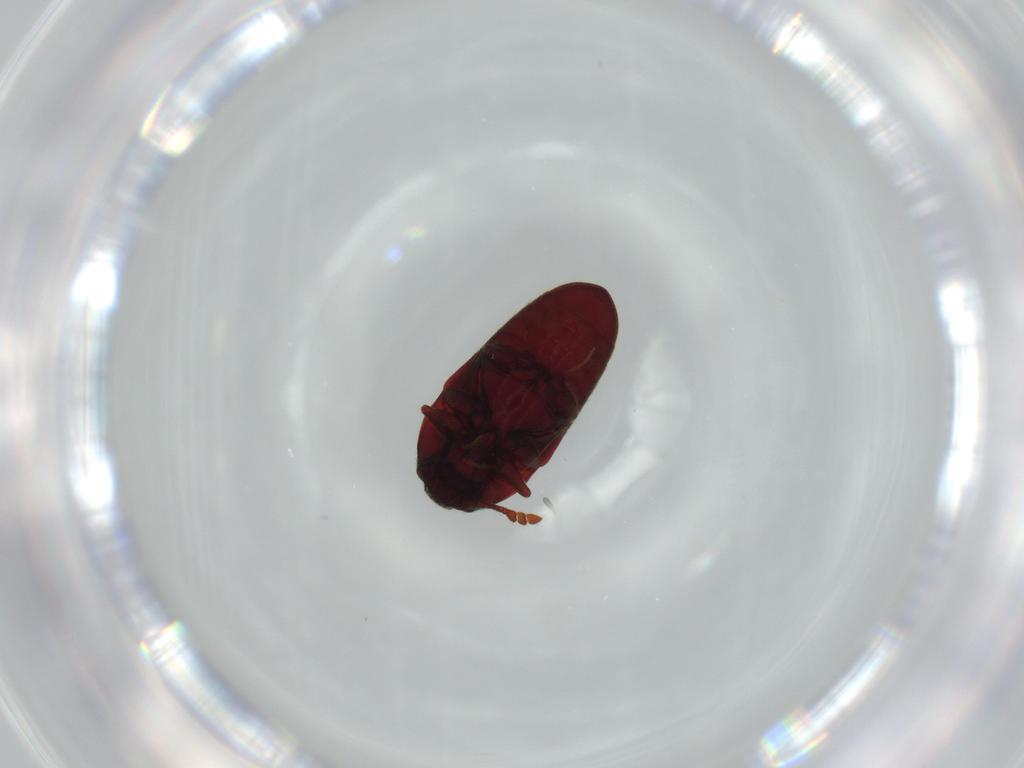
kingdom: Animalia
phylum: Arthropoda
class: Insecta
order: Coleoptera
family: Throscidae
